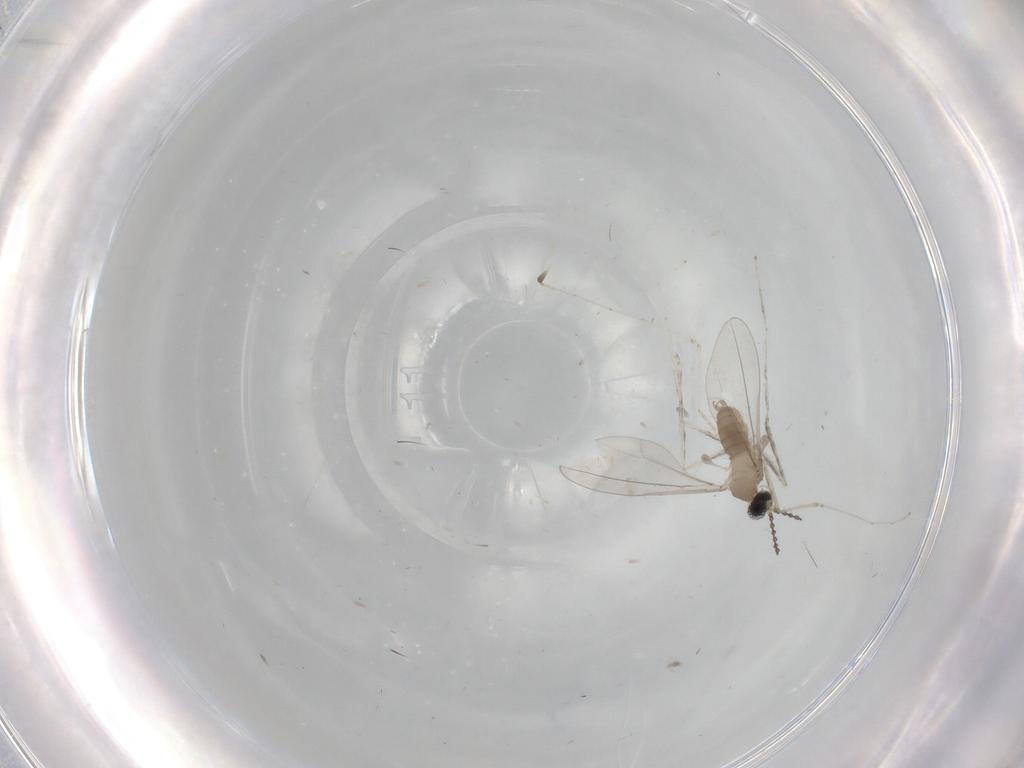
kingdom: Animalia
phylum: Arthropoda
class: Insecta
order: Diptera
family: Cecidomyiidae
